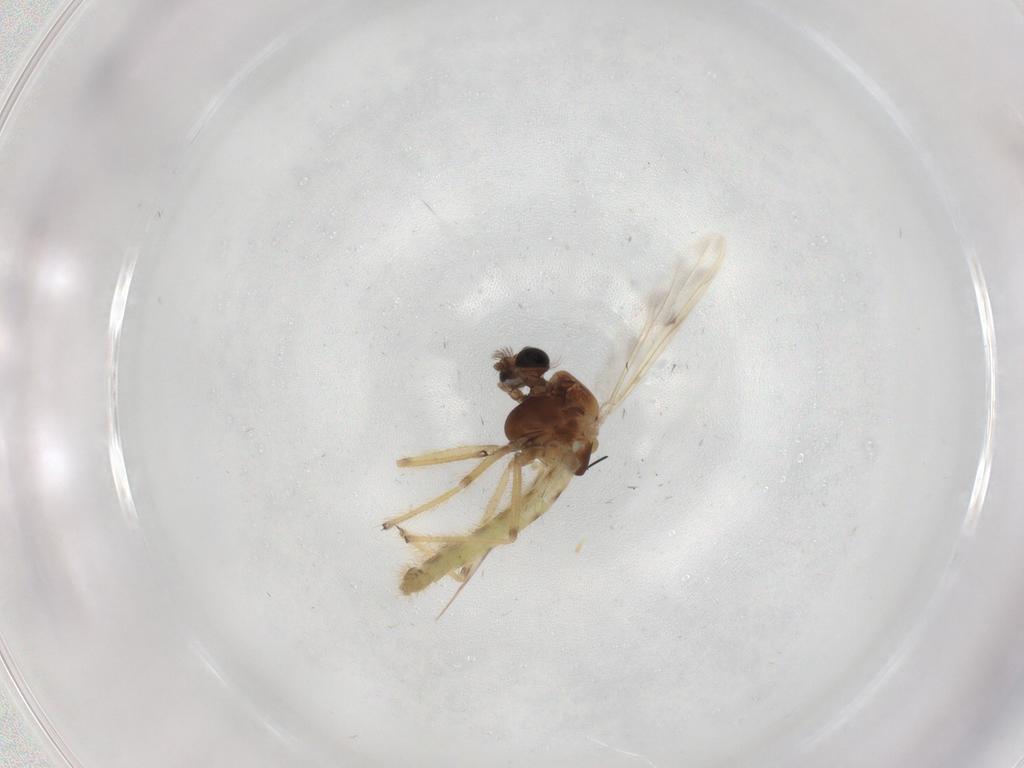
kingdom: Animalia
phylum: Arthropoda
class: Insecta
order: Diptera
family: Chironomidae
